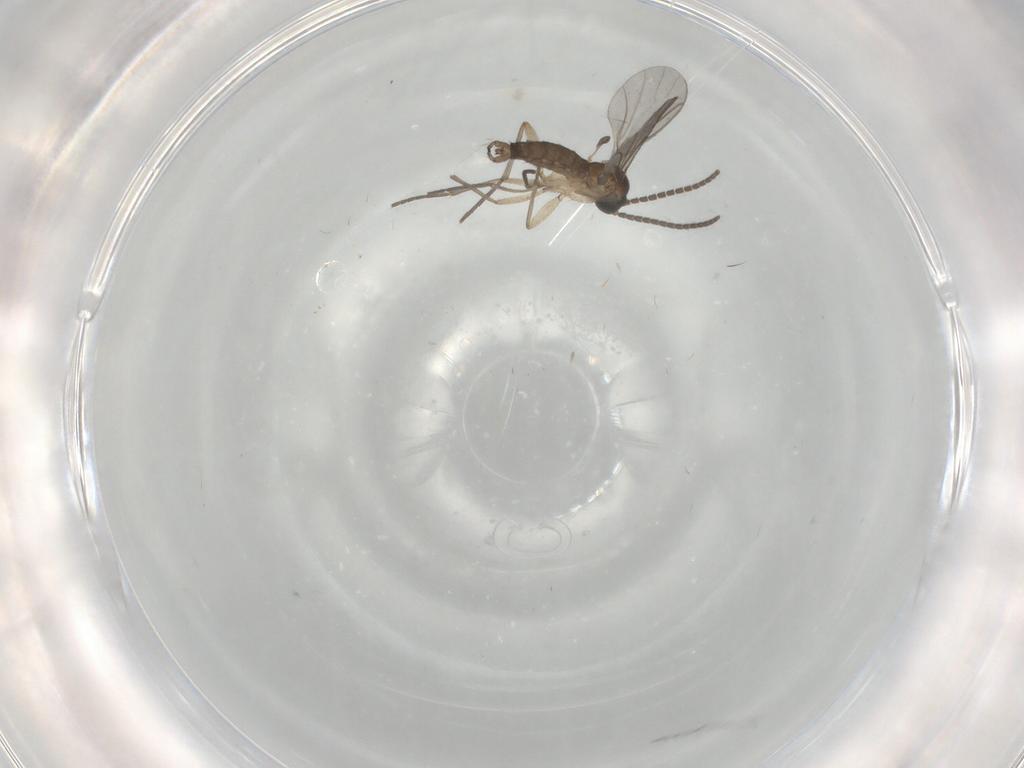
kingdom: Animalia
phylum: Arthropoda
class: Insecta
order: Diptera
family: Sciaridae
